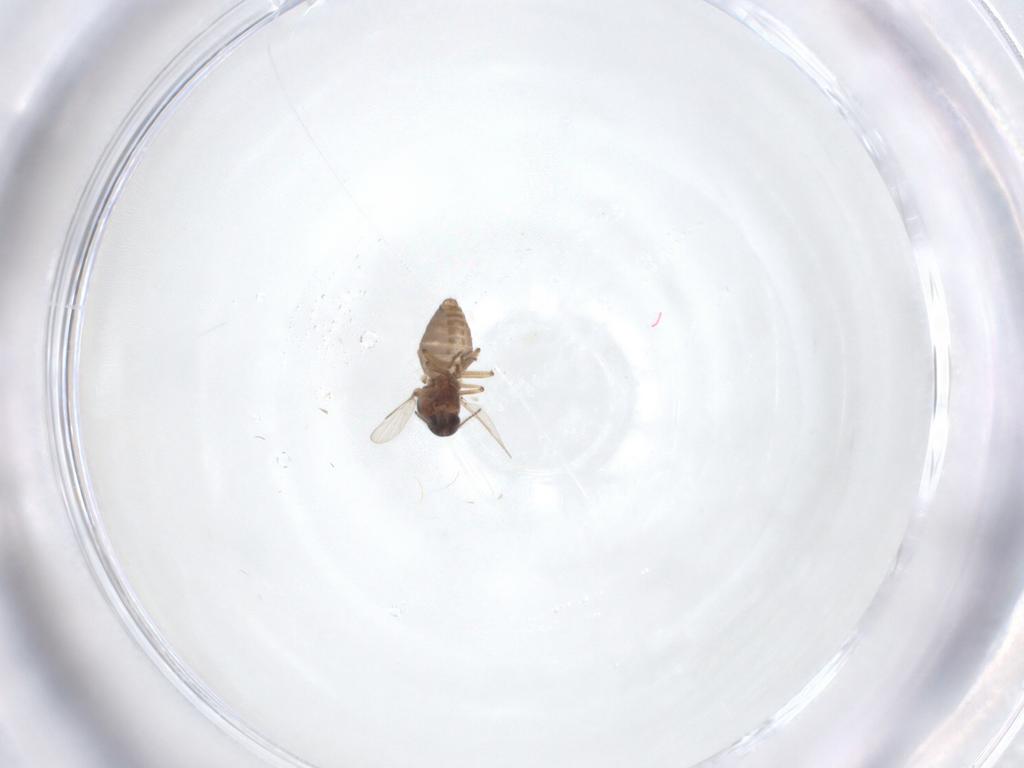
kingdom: Animalia
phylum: Arthropoda
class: Insecta
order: Diptera
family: Ceratopogonidae
